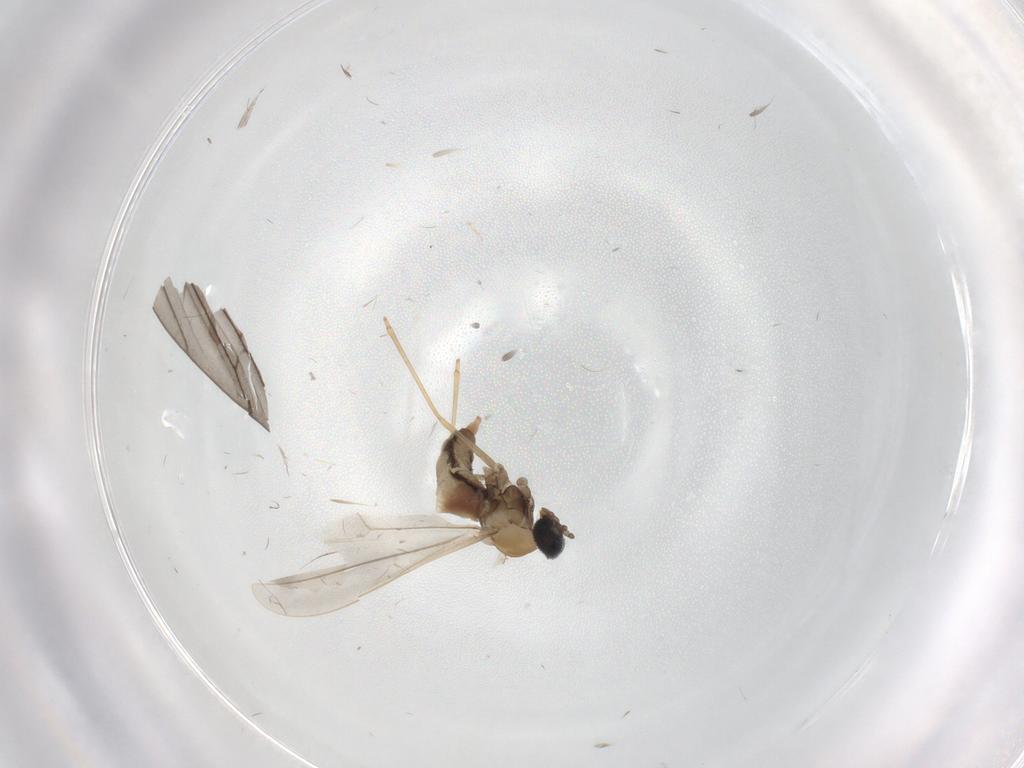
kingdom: Animalia
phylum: Arthropoda
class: Insecta
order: Diptera
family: Cecidomyiidae
